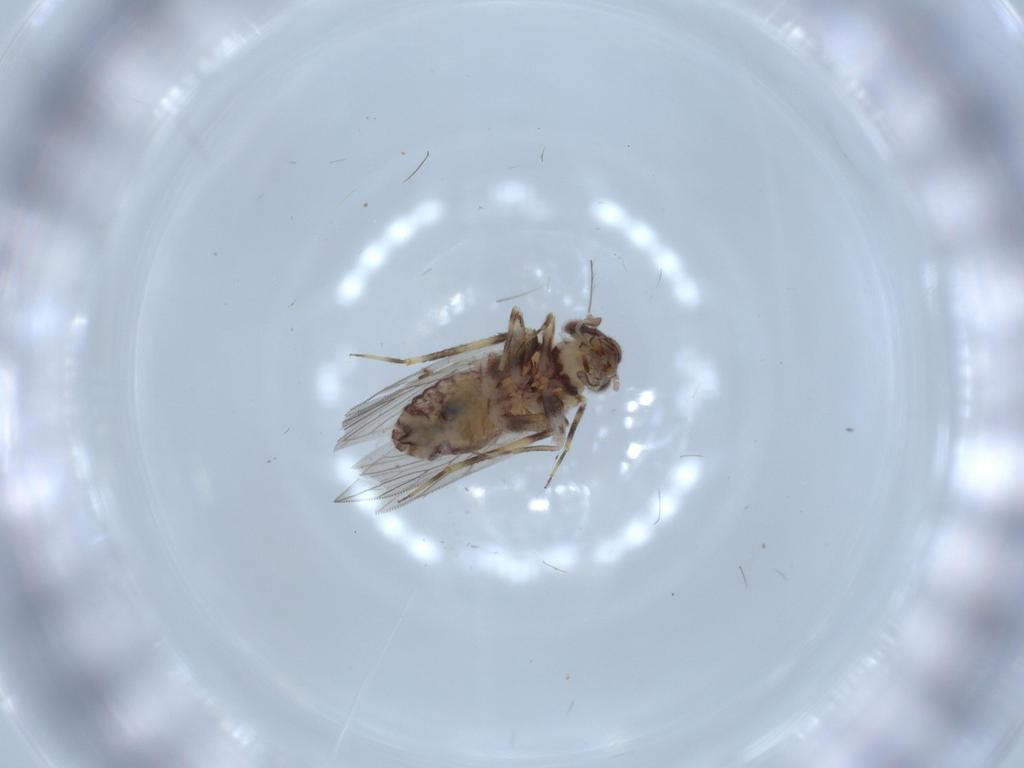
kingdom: Animalia
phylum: Arthropoda
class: Insecta
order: Psocodea
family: Lepidopsocidae
